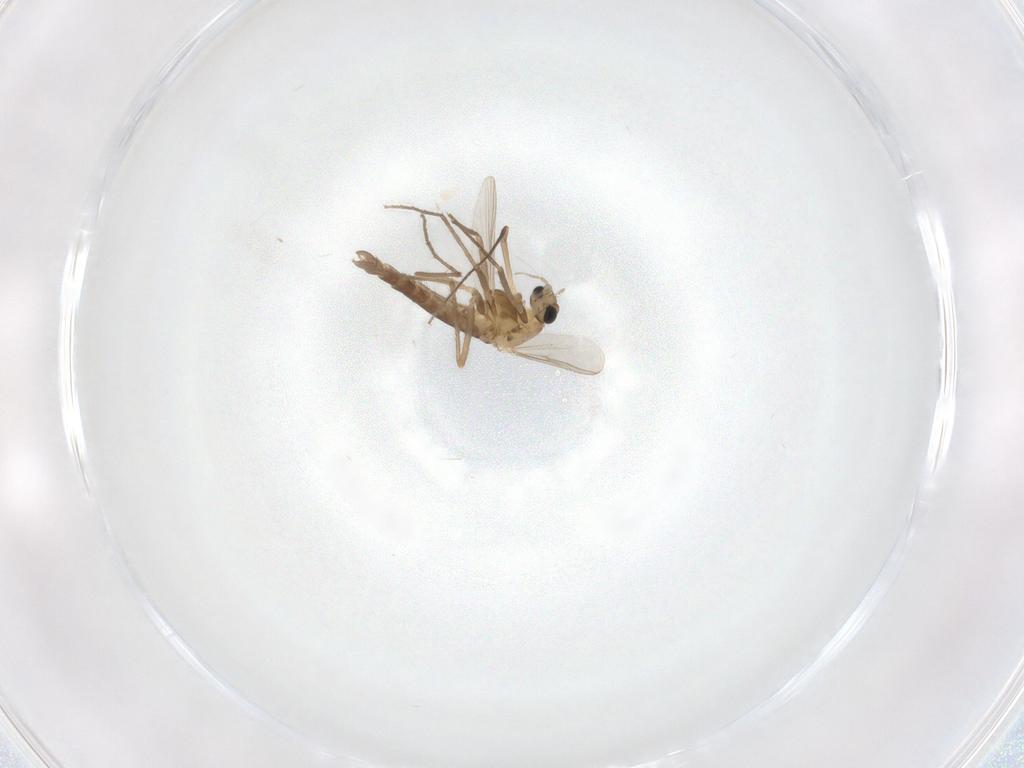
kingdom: Animalia
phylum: Arthropoda
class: Insecta
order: Diptera
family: Chironomidae
